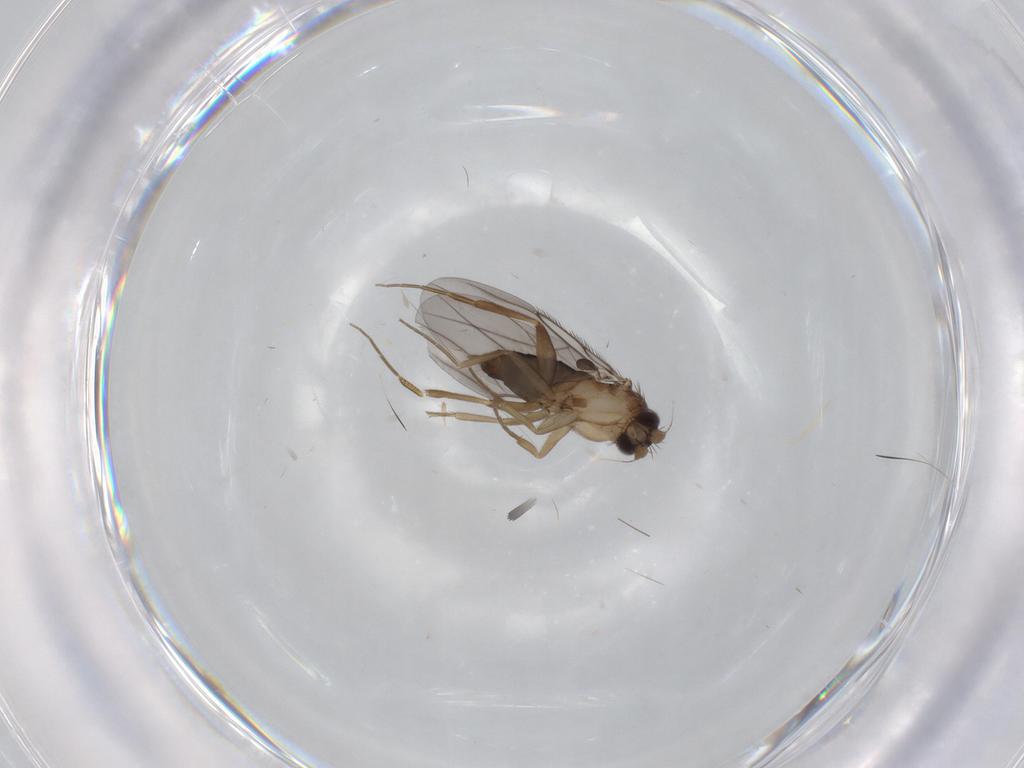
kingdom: Animalia
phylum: Arthropoda
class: Insecta
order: Diptera
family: Chironomidae
